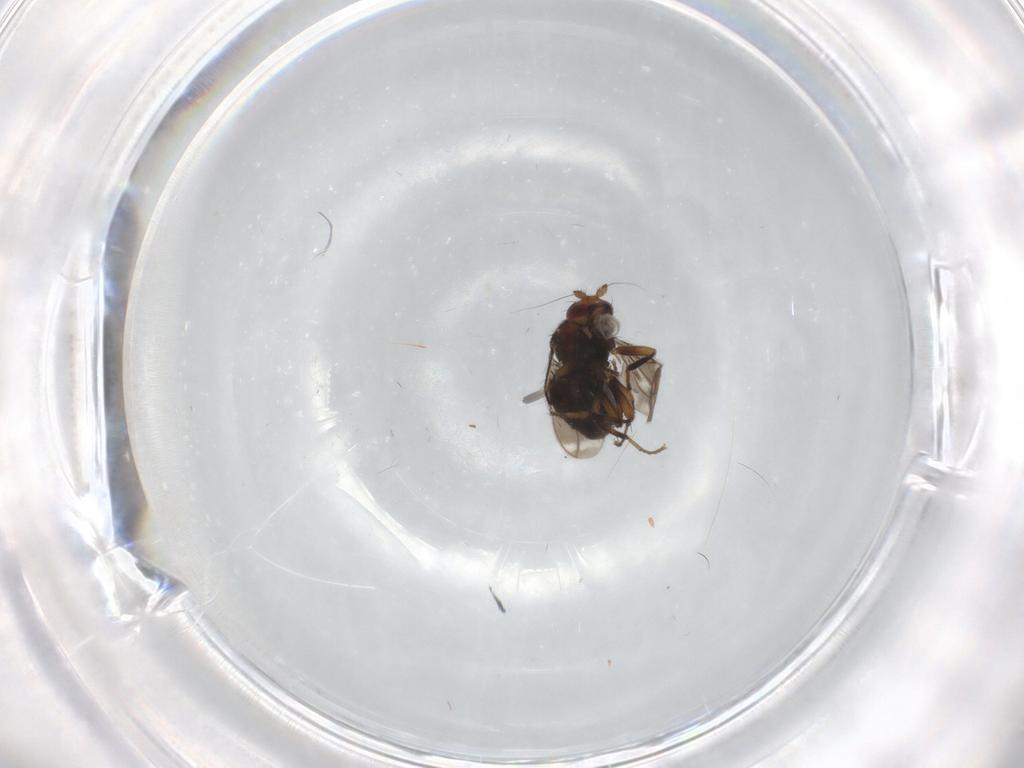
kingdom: Animalia
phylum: Arthropoda
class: Insecta
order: Diptera
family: Sphaeroceridae
